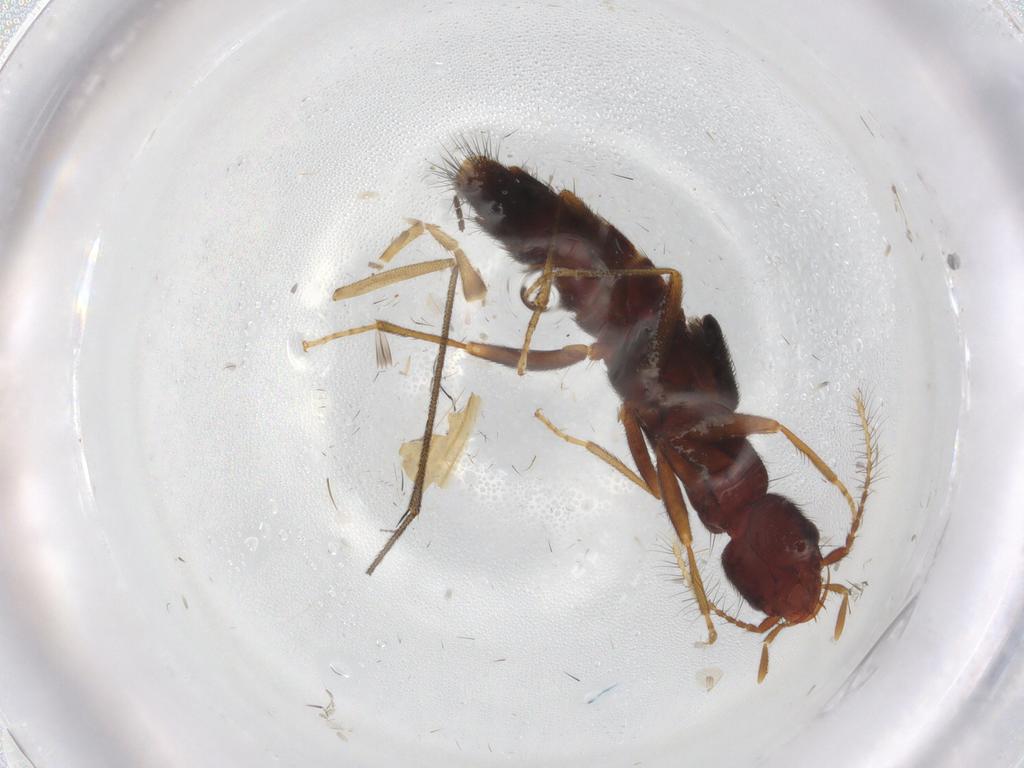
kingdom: Animalia
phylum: Arthropoda
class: Insecta
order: Coleoptera
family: Staphylinidae
